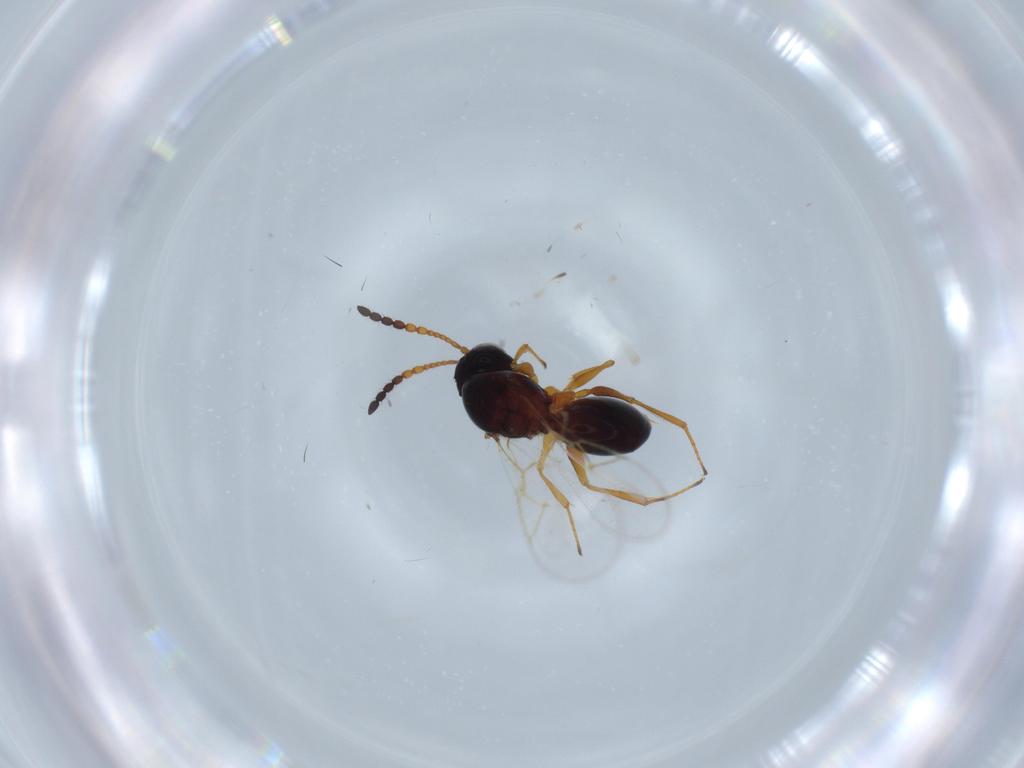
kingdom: Animalia
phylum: Arthropoda
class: Insecta
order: Hymenoptera
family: Figitidae
